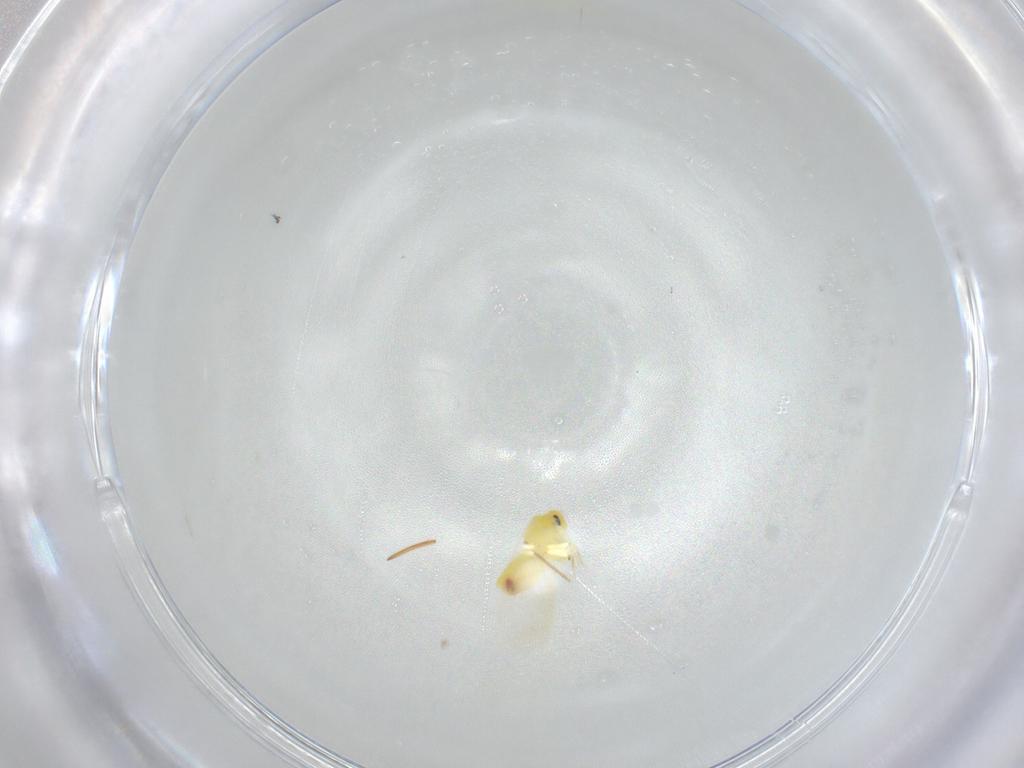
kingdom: Animalia
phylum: Arthropoda
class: Insecta
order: Hemiptera
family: Aleyrodidae
